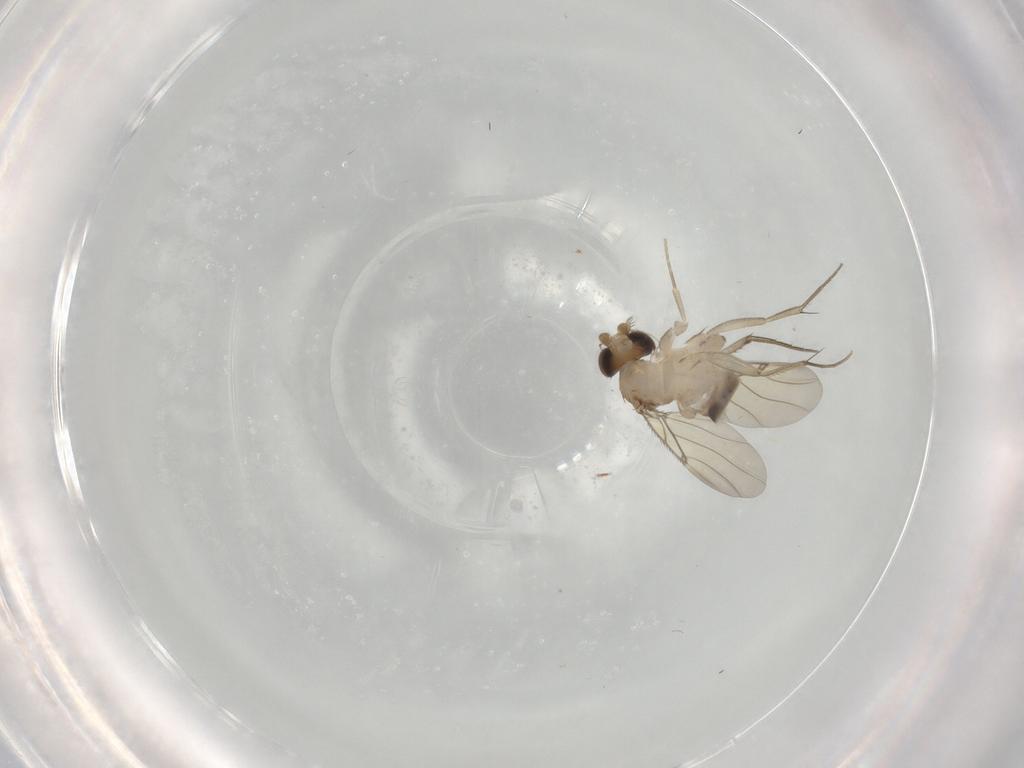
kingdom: Animalia
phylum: Arthropoda
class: Insecta
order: Diptera
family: Phoridae
